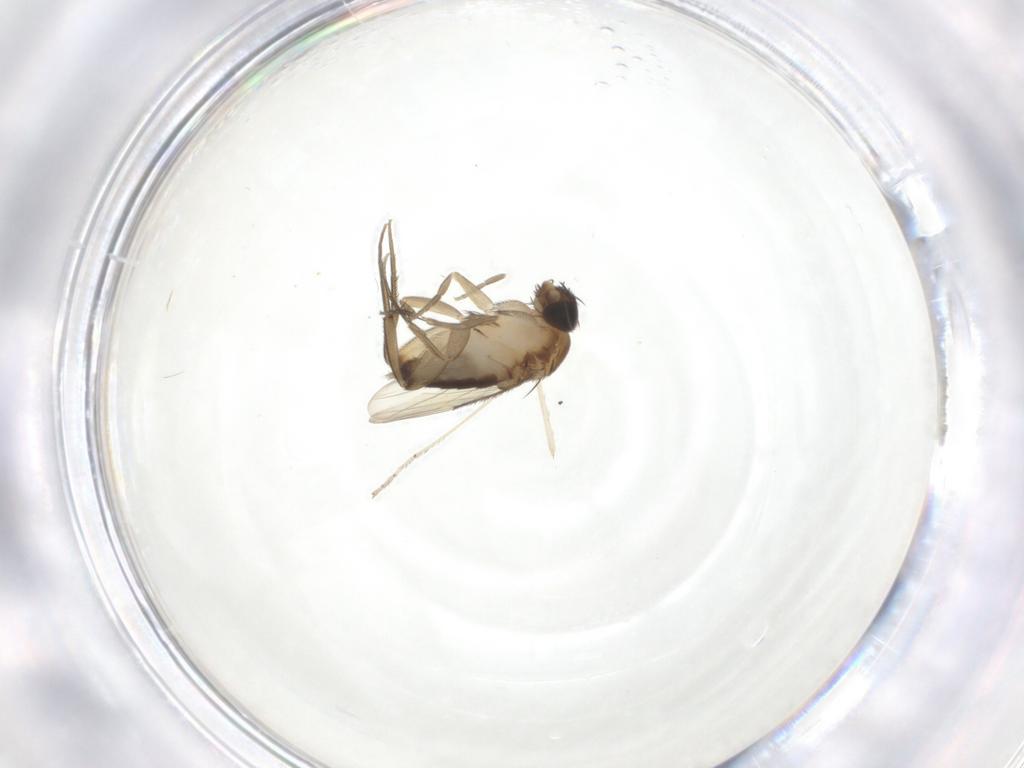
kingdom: Animalia
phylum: Arthropoda
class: Insecta
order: Diptera
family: Phoridae
